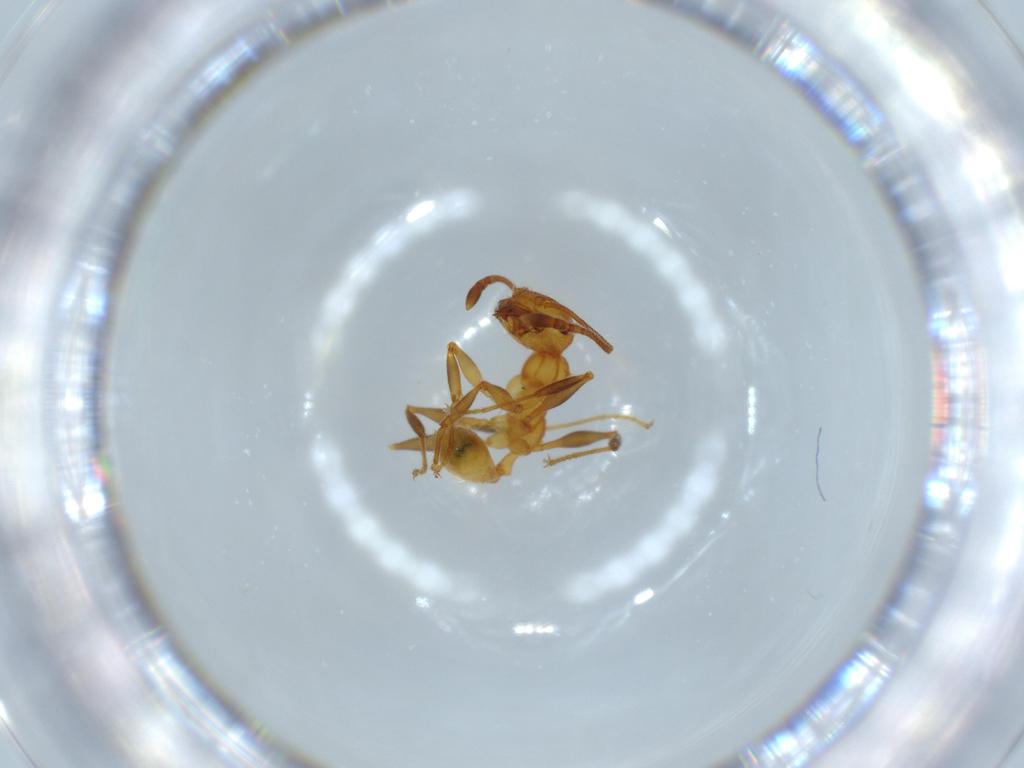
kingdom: Animalia
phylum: Arthropoda
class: Insecta
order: Hymenoptera
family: Formicidae
